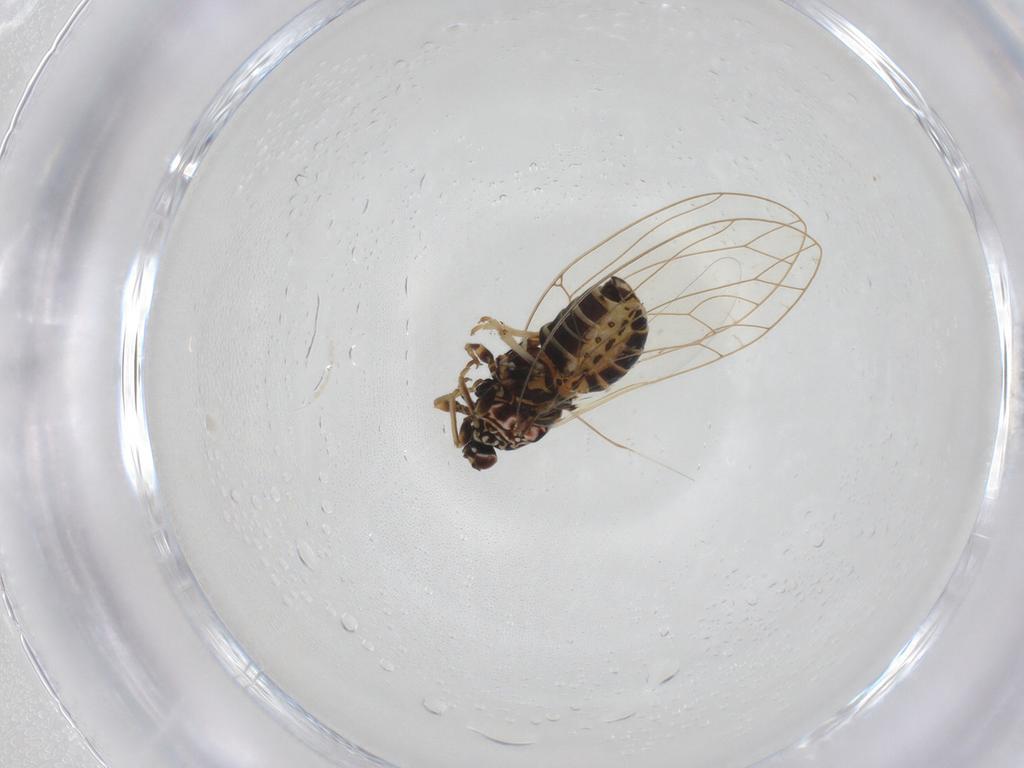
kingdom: Animalia
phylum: Arthropoda
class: Insecta
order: Hemiptera
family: Triozidae
